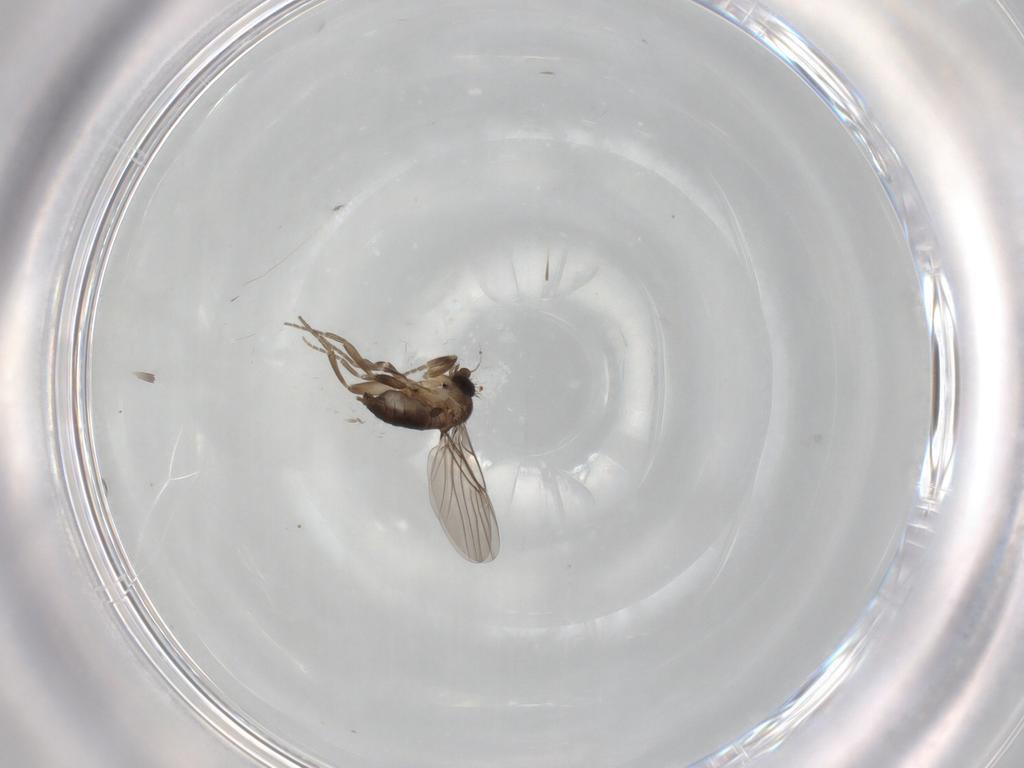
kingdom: Animalia
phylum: Arthropoda
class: Insecta
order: Diptera
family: Phoridae
